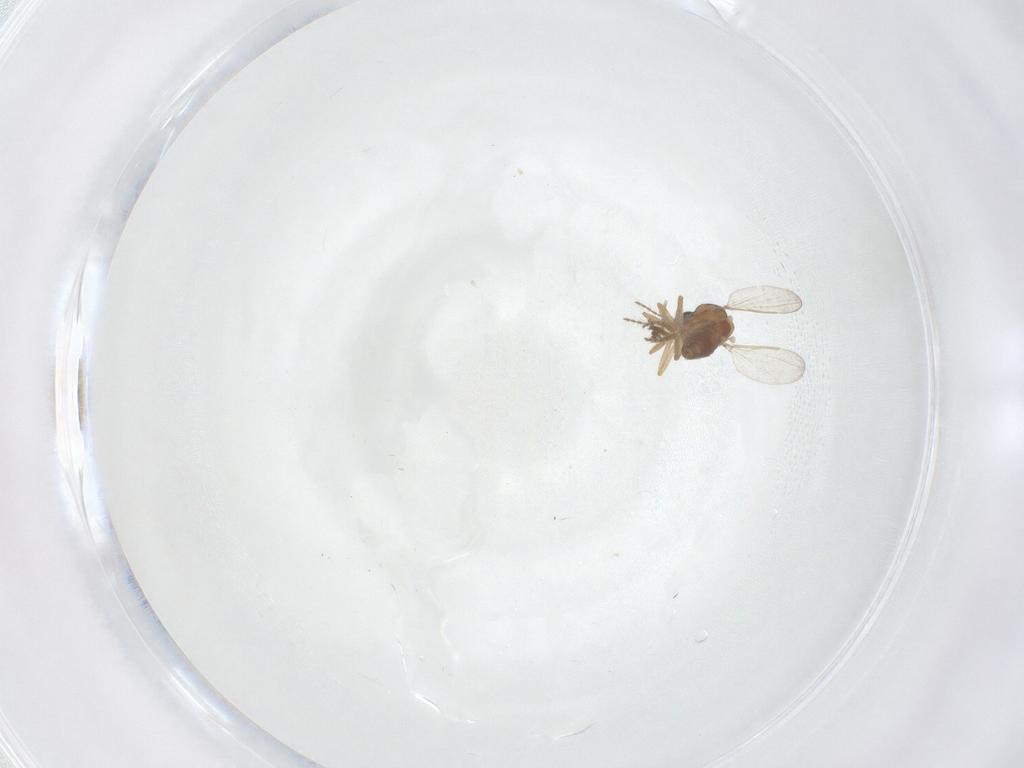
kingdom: Animalia
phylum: Arthropoda
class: Insecta
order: Diptera
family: Ceratopogonidae
